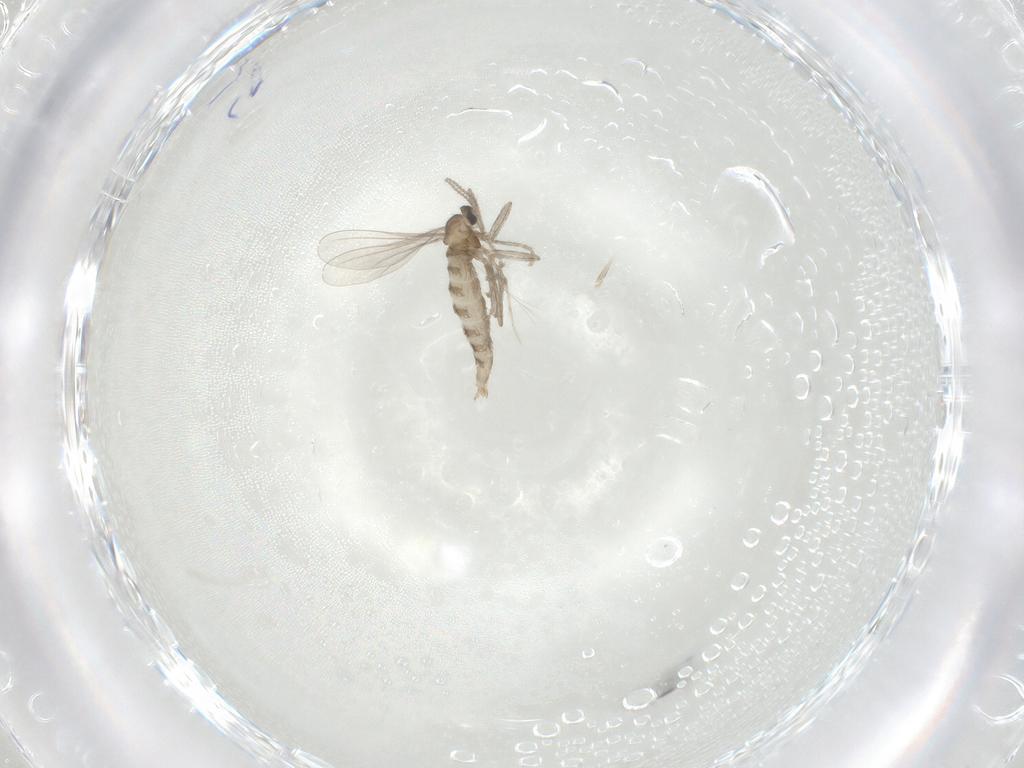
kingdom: Animalia
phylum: Arthropoda
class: Insecta
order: Diptera
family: Cecidomyiidae
